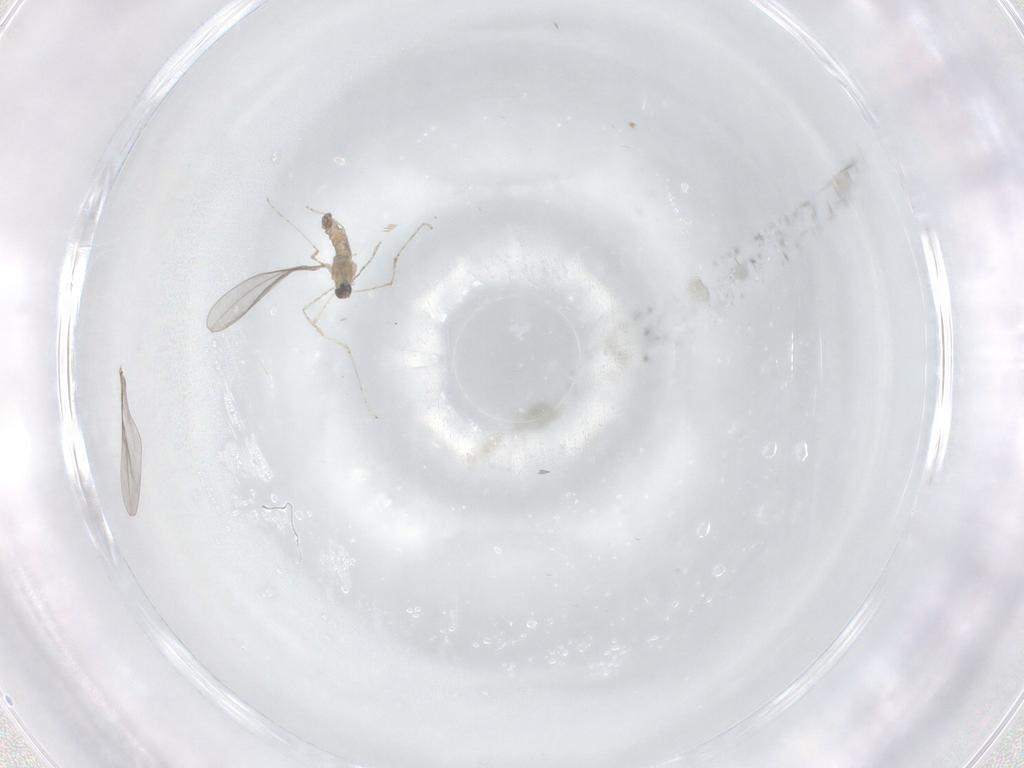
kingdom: Animalia
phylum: Arthropoda
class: Insecta
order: Diptera
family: Cecidomyiidae
